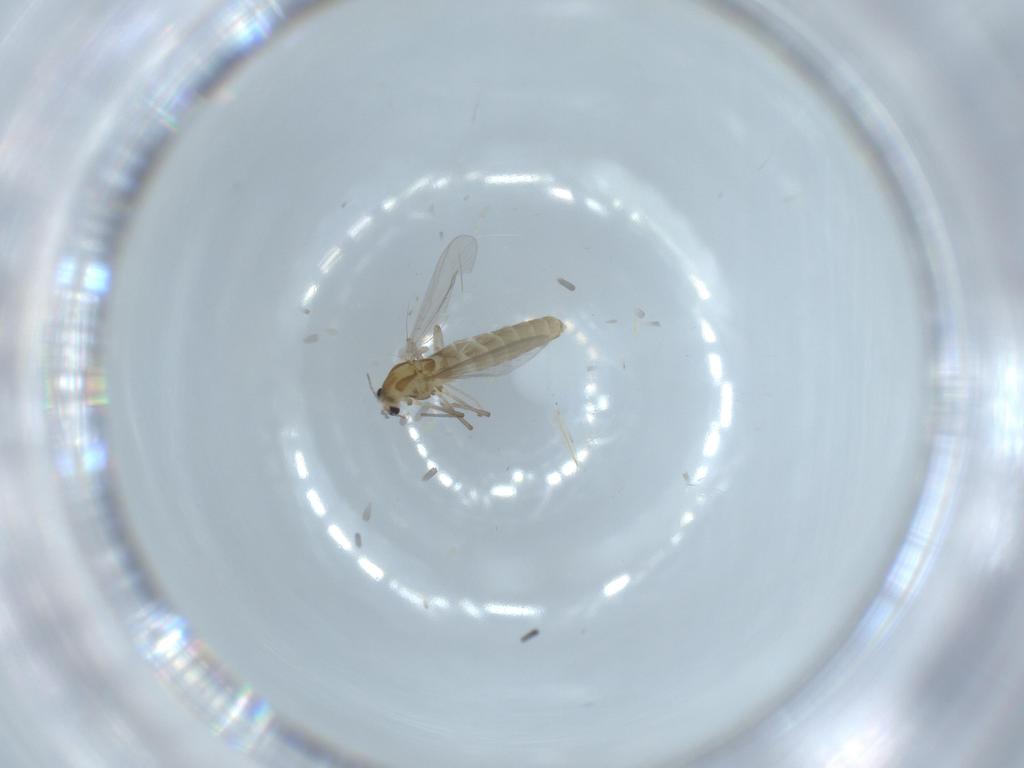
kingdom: Animalia
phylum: Arthropoda
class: Insecta
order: Diptera
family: Chironomidae
